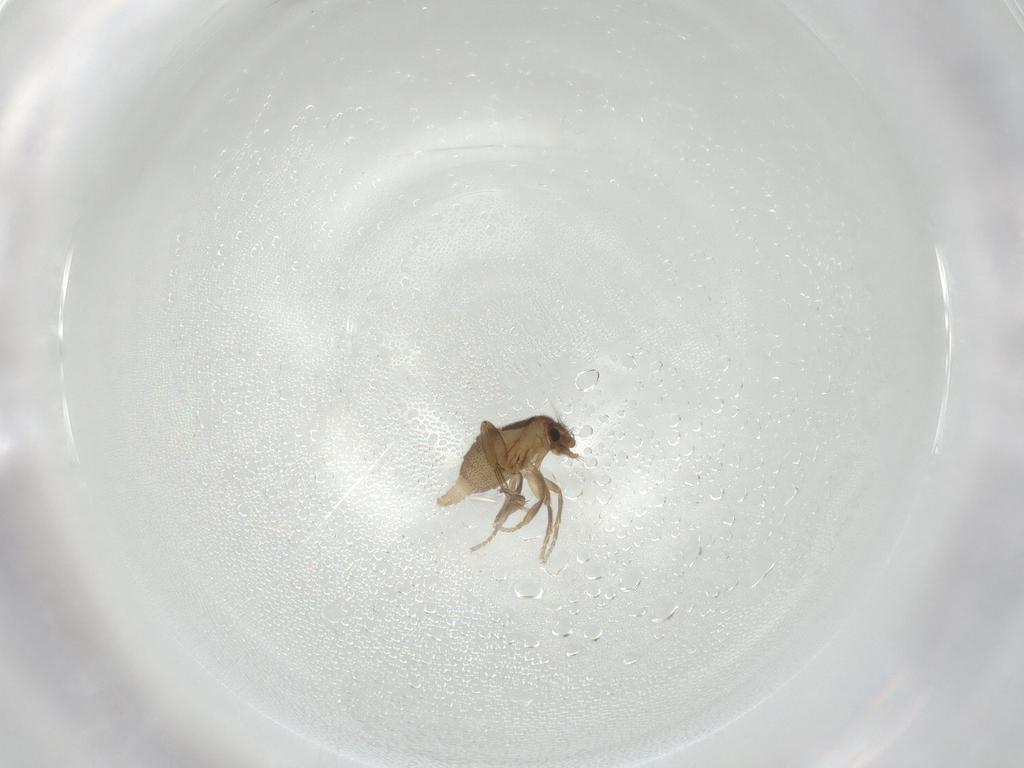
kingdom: Animalia
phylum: Arthropoda
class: Insecta
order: Diptera
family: Phoridae
